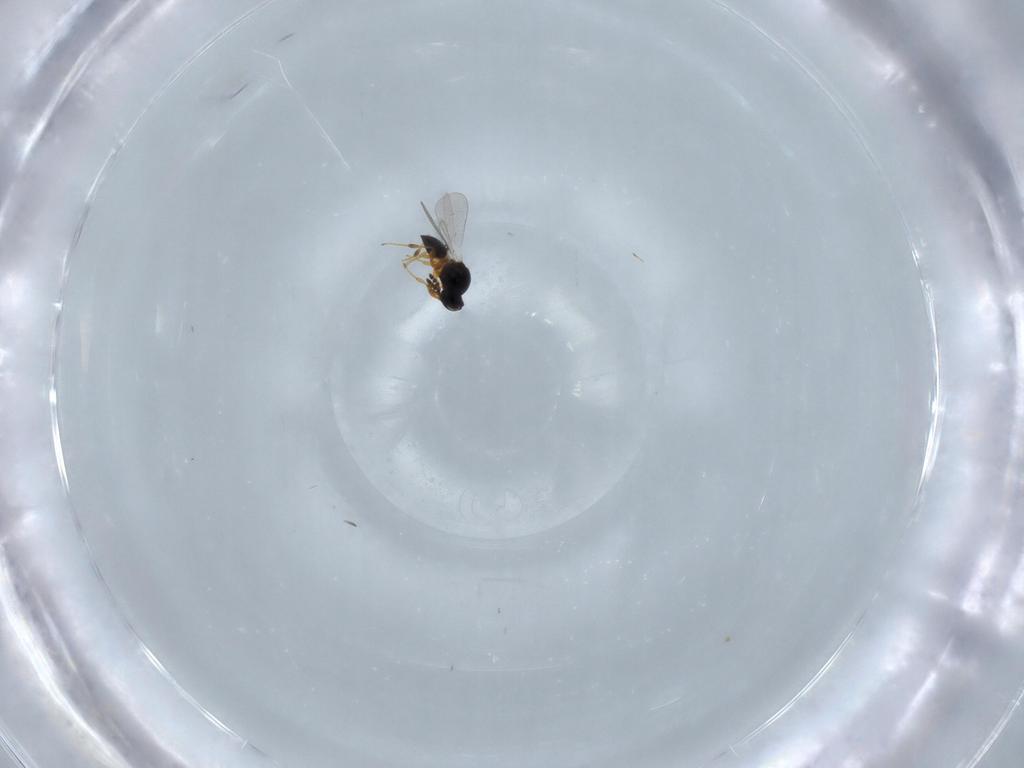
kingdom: Animalia
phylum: Arthropoda
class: Insecta
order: Hymenoptera
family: Platygastridae
